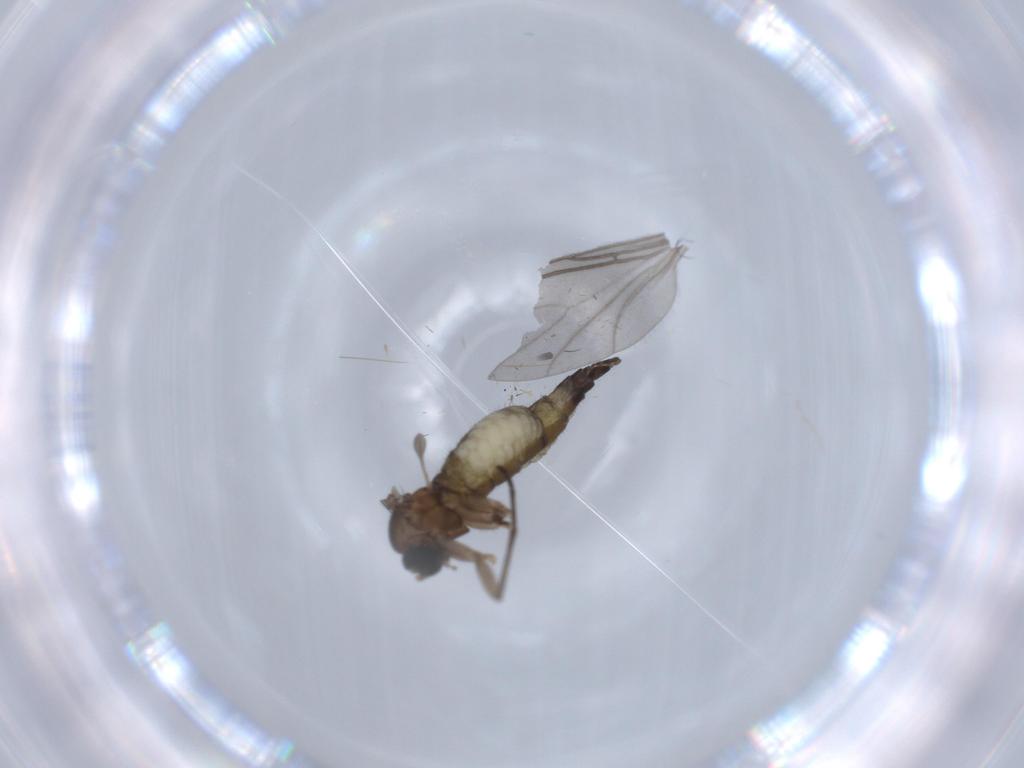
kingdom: Animalia
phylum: Arthropoda
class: Insecta
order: Diptera
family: Sciaridae
